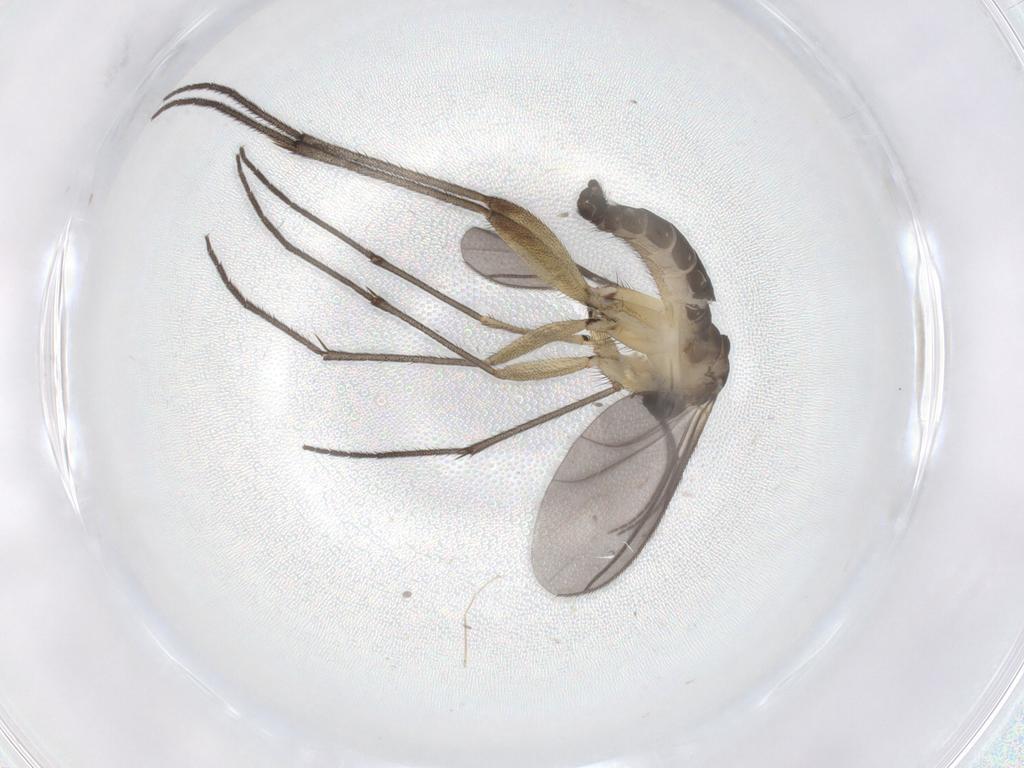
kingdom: Animalia
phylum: Arthropoda
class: Insecta
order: Diptera
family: Sciaridae
